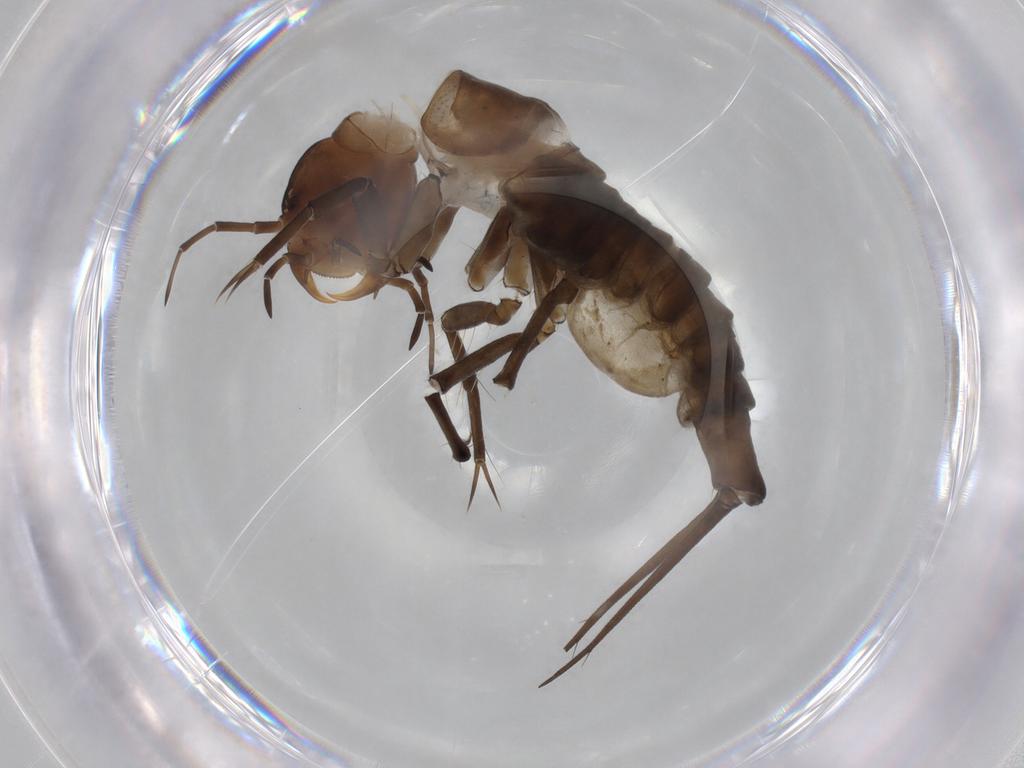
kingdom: Animalia
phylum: Arthropoda
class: Insecta
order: Coleoptera
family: Dytiscidae
